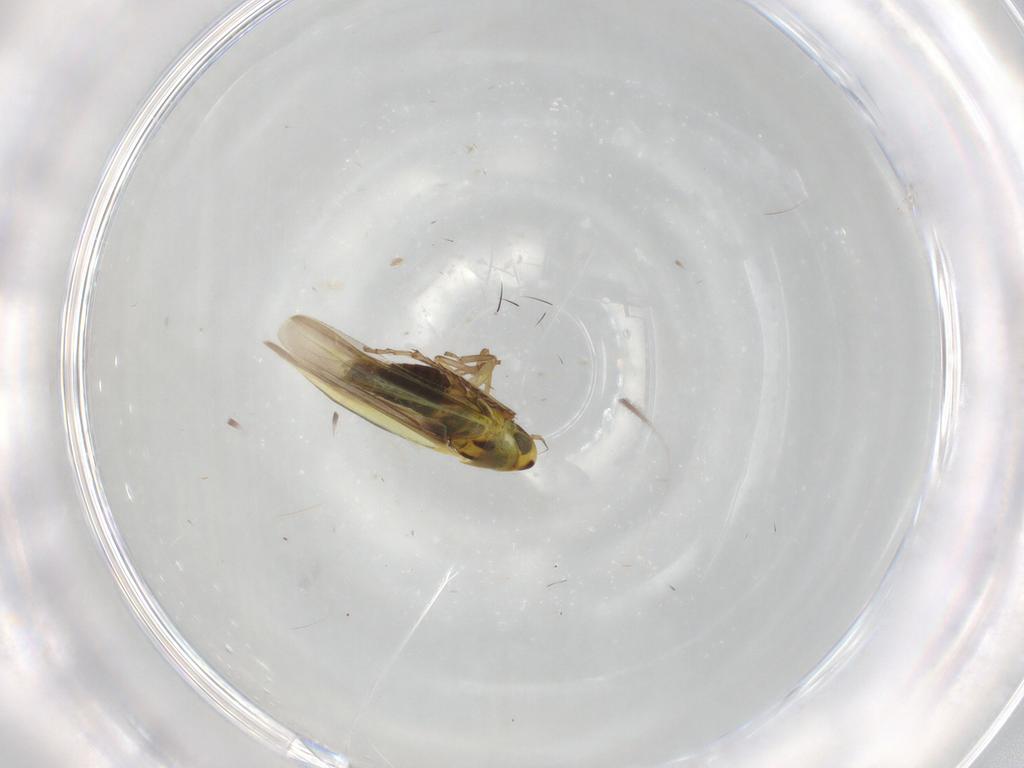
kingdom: Animalia
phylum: Arthropoda
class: Insecta
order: Hemiptera
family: Cicadellidae
